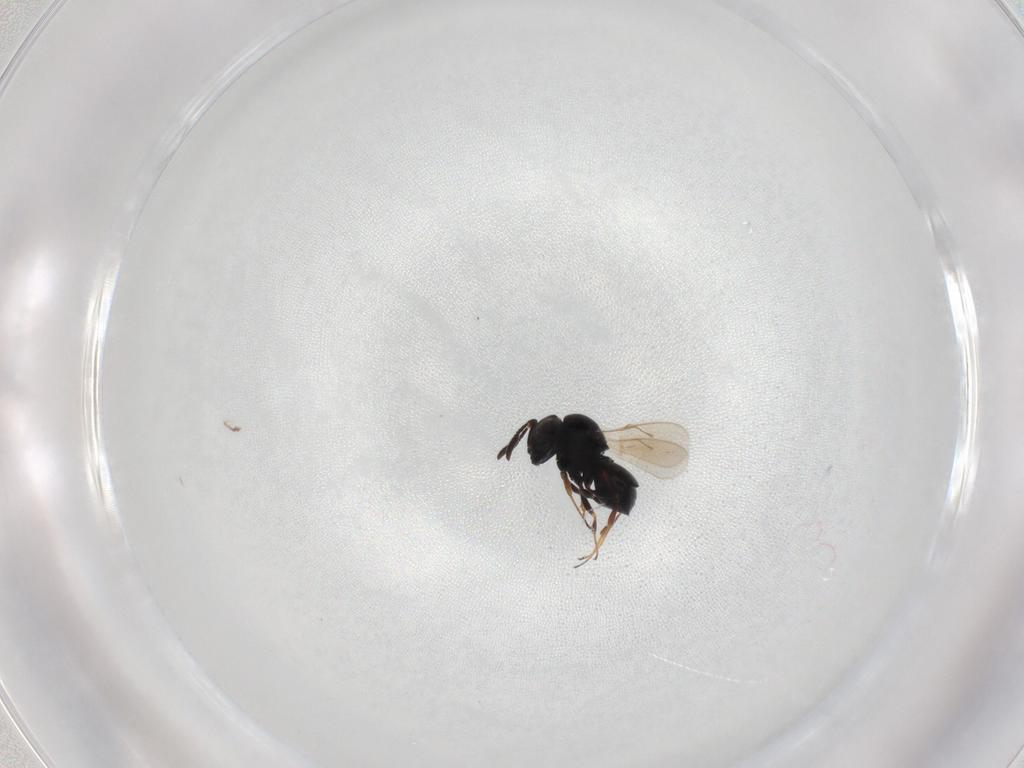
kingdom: Animalia
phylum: Arthropoda
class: Insecta
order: Hymenoptera
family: Scelionidae
